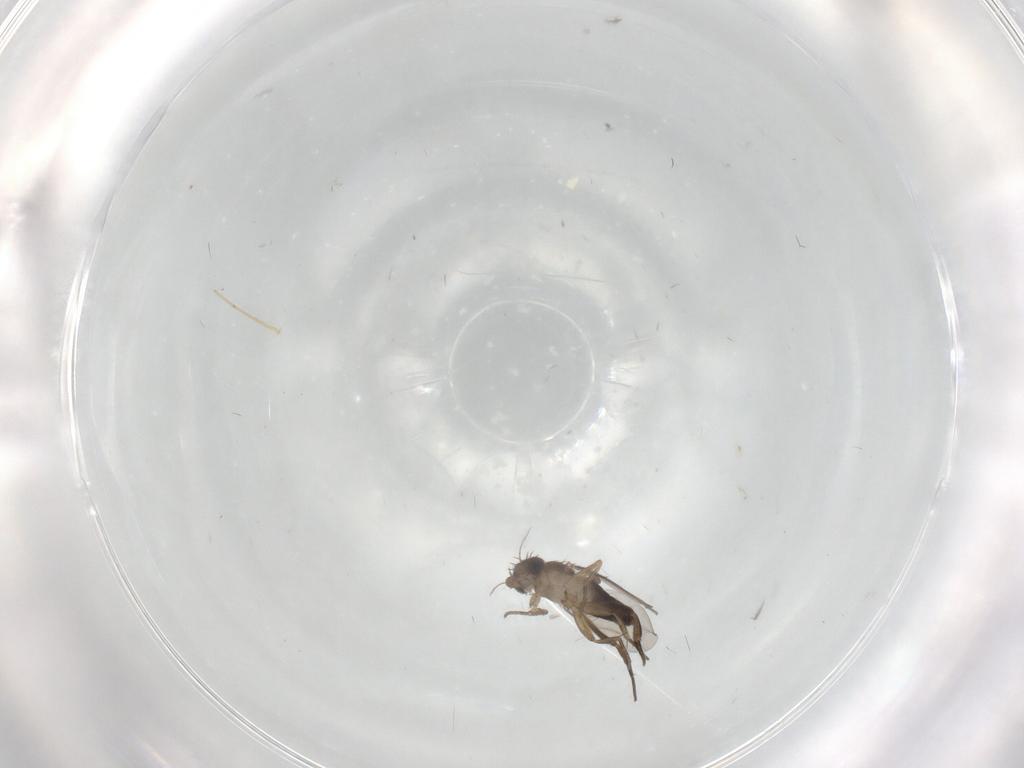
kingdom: Animalia
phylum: Arthropoda
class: Insecta
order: Diptera
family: Phoridae
